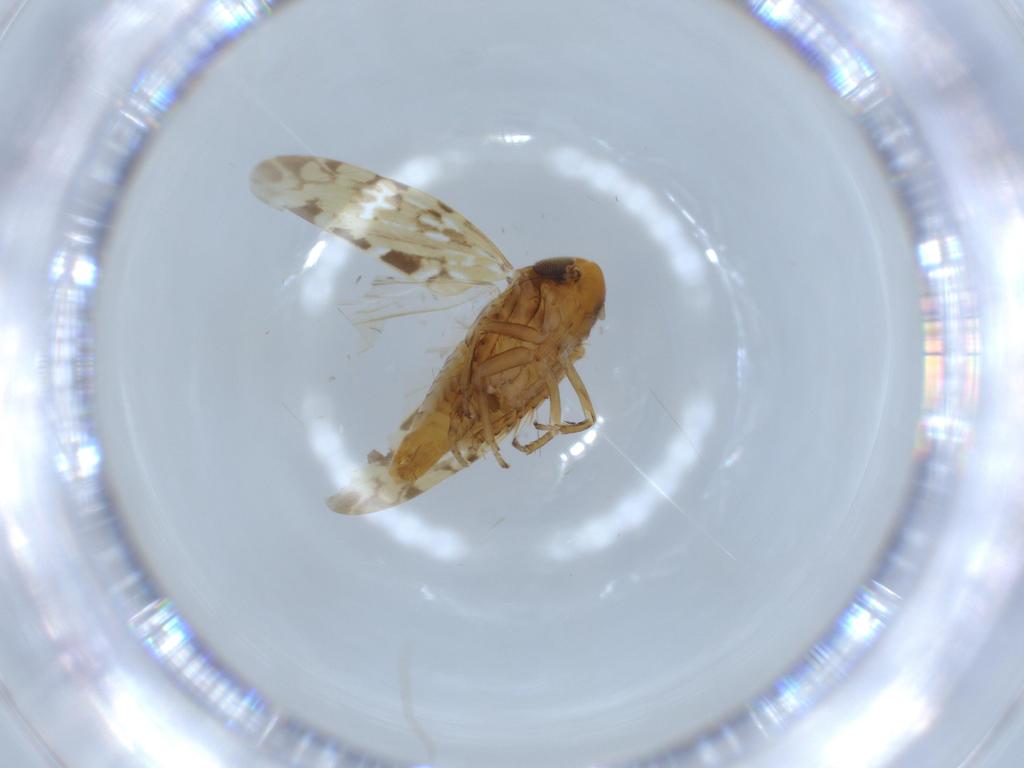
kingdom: Animalia
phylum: Arthropoda
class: Insecta
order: Hemiptera
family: Cicadellidae
